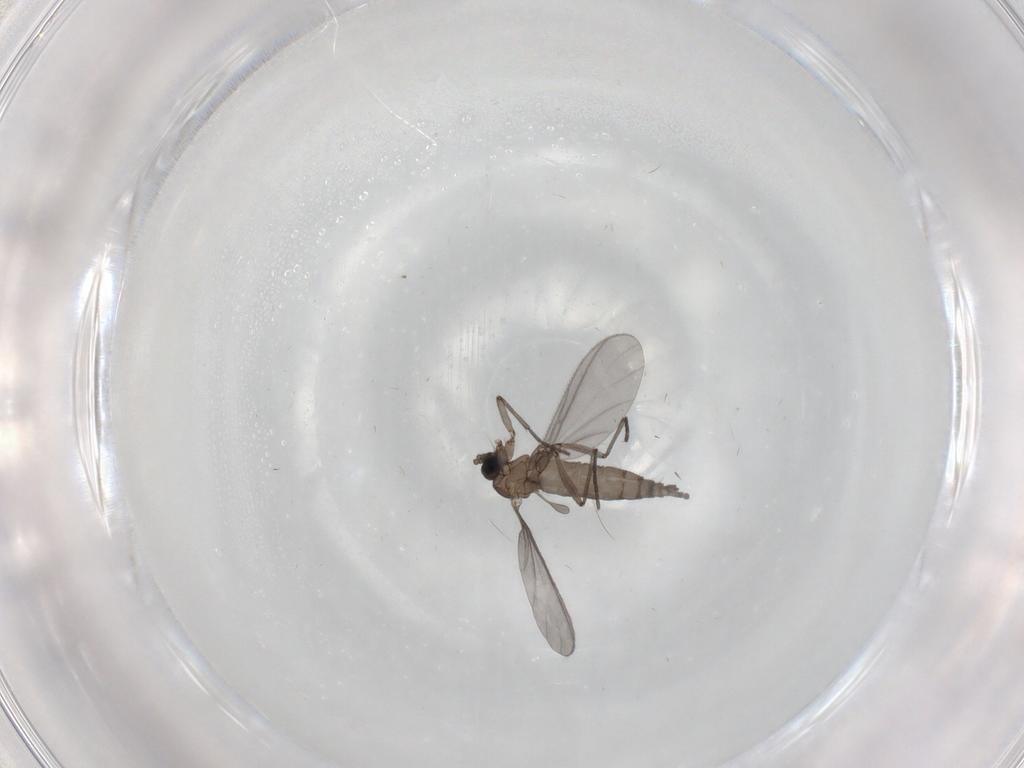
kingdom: Animalia
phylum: Arthropoda
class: Insecta
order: Diptera
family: Sciaridae
